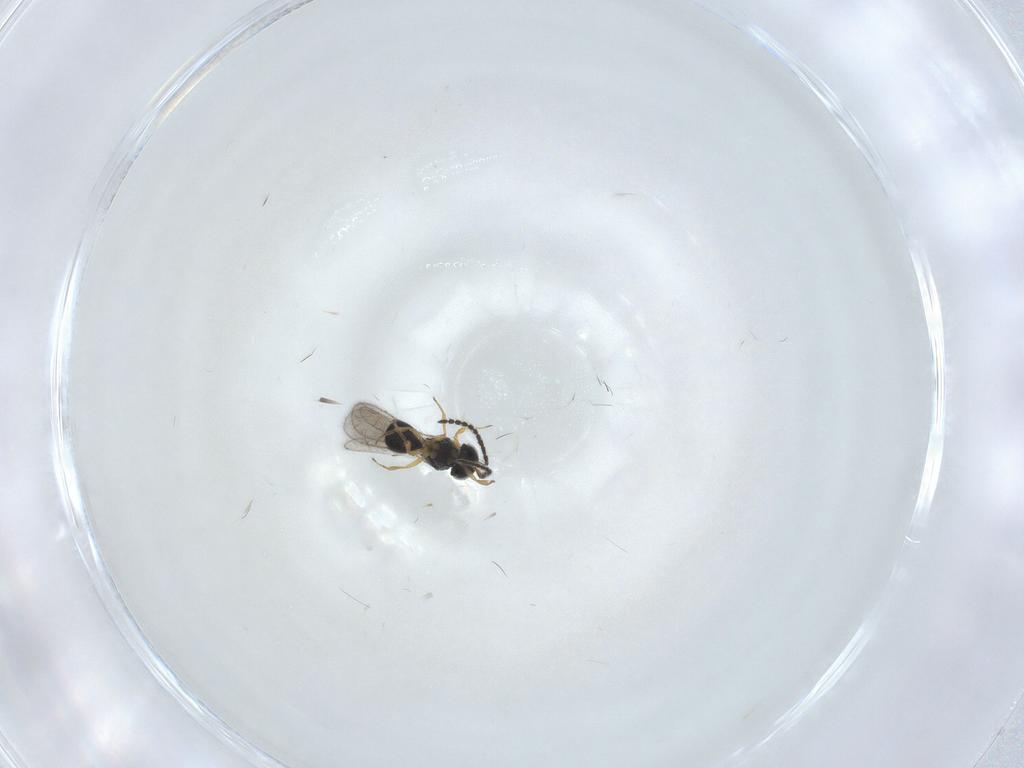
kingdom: Animalia
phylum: Arthropoda
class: Insecta
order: Hymenoptera
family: Scelionidae
